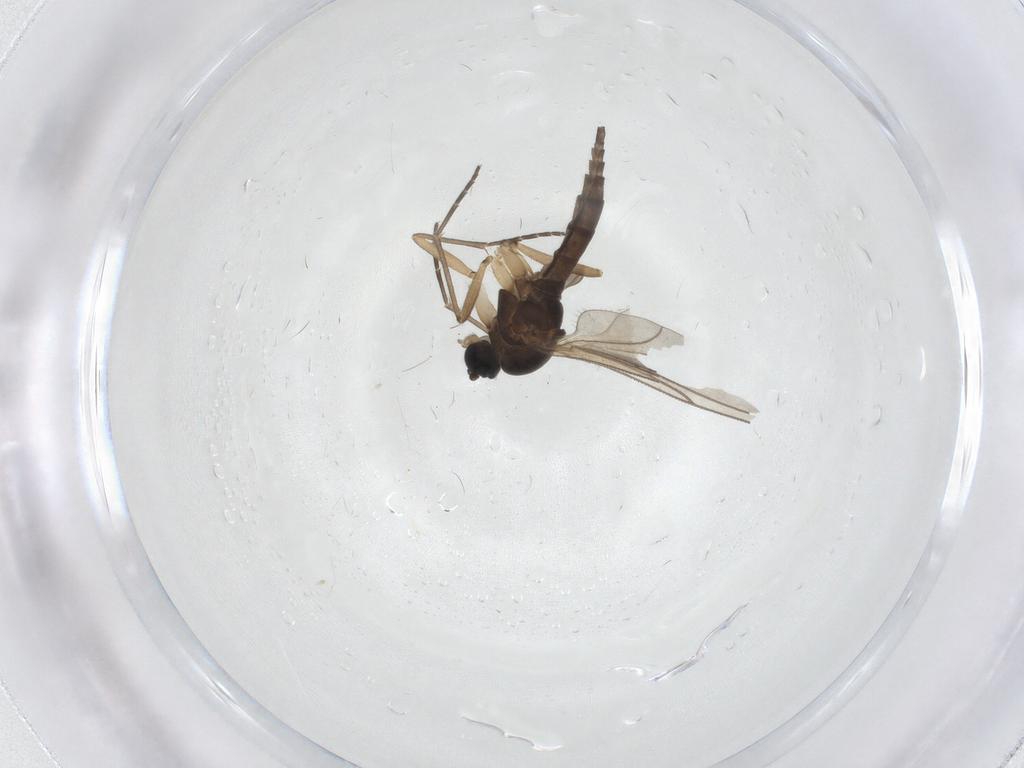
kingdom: Animalia
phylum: Arthropoda
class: Insecta
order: Diptera
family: Sciaridae
